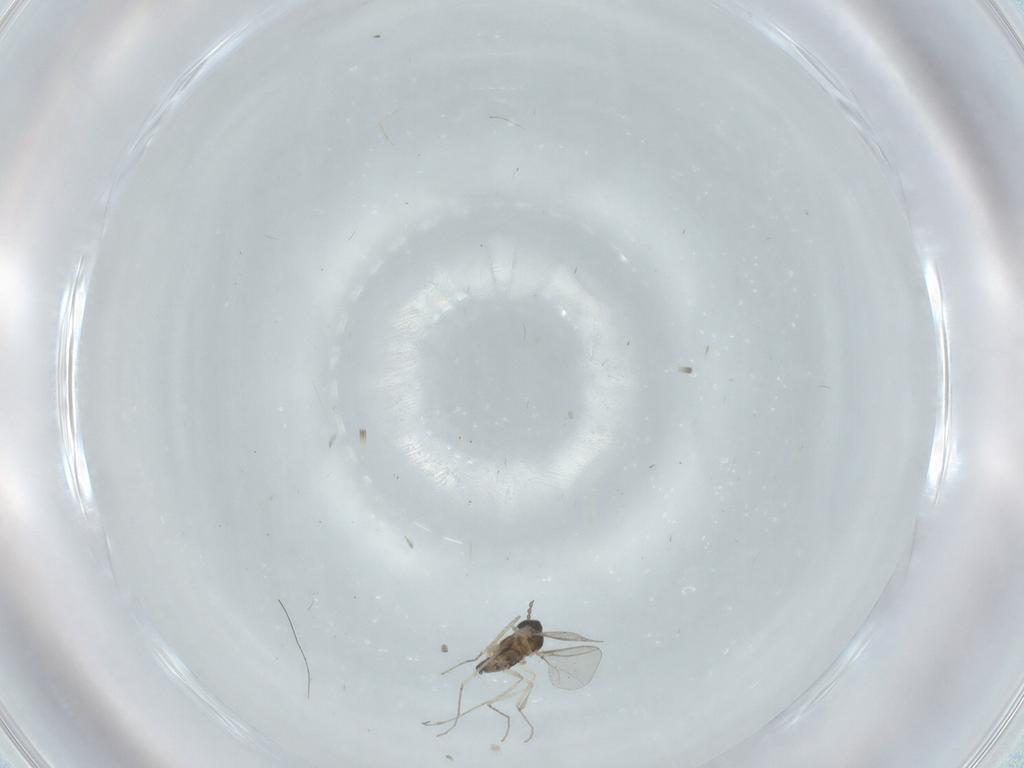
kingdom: Animalia
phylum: Arthropoda
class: Insecta
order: Diptera
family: Cecidomyiidae
